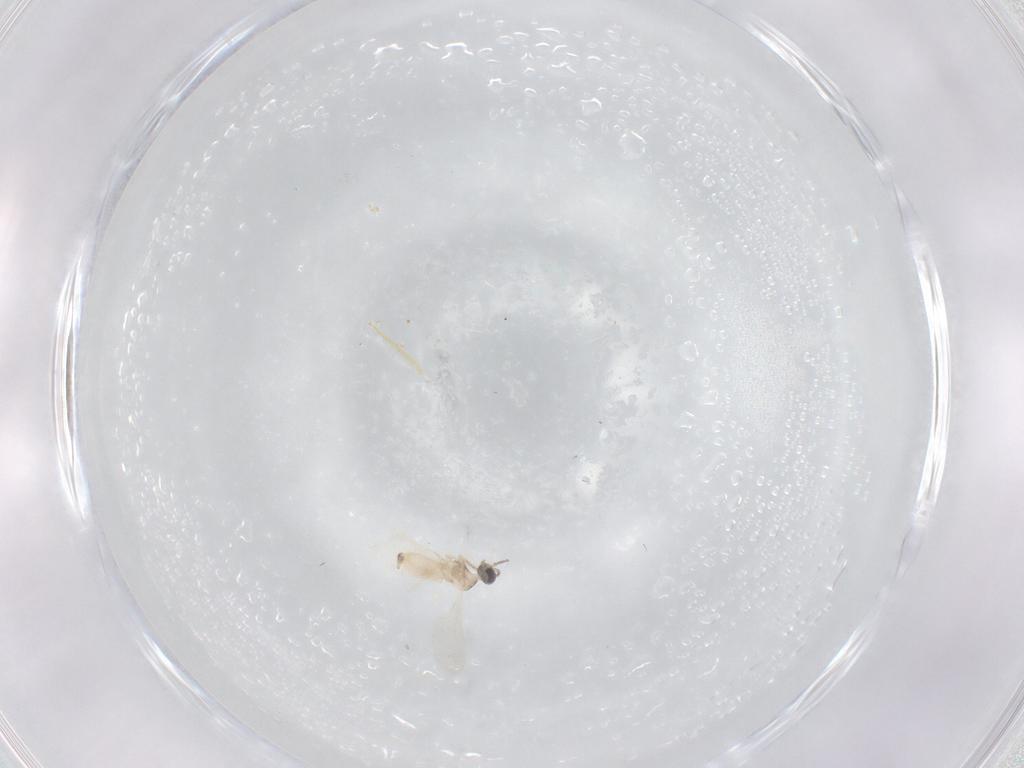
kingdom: Animalia
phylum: Arthropoda
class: Insecta
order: Diptera
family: Cecidomyiidae
